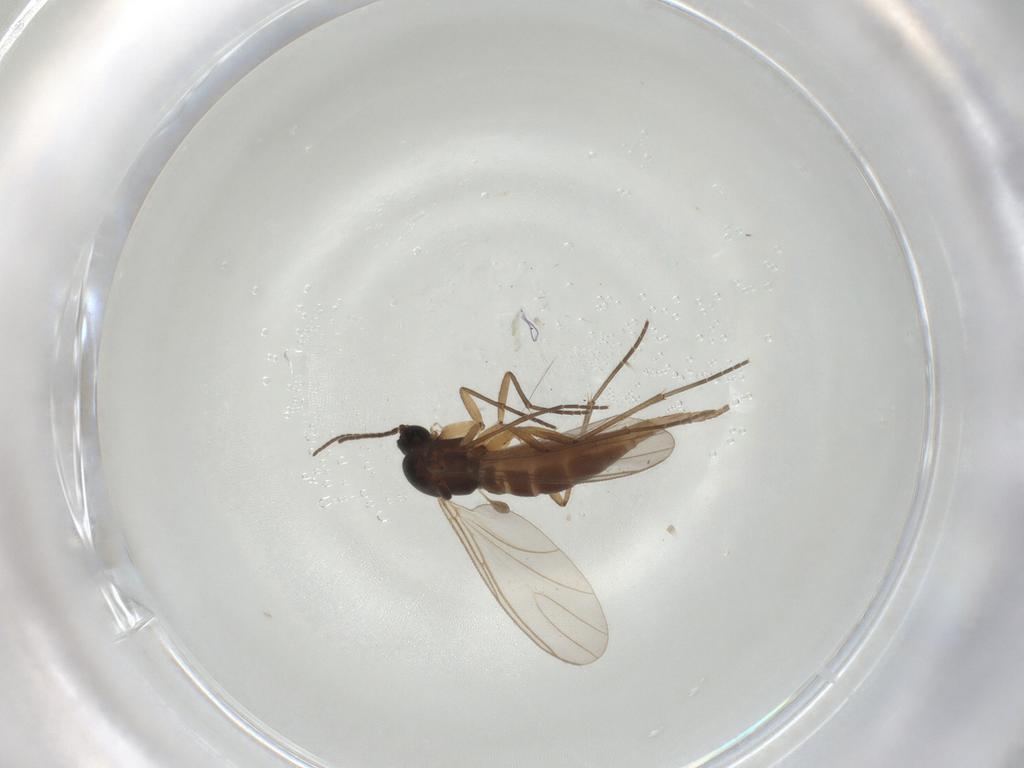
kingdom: Animalia
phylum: Arthropoda
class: Insecta
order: Diptera
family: Sciaridae
